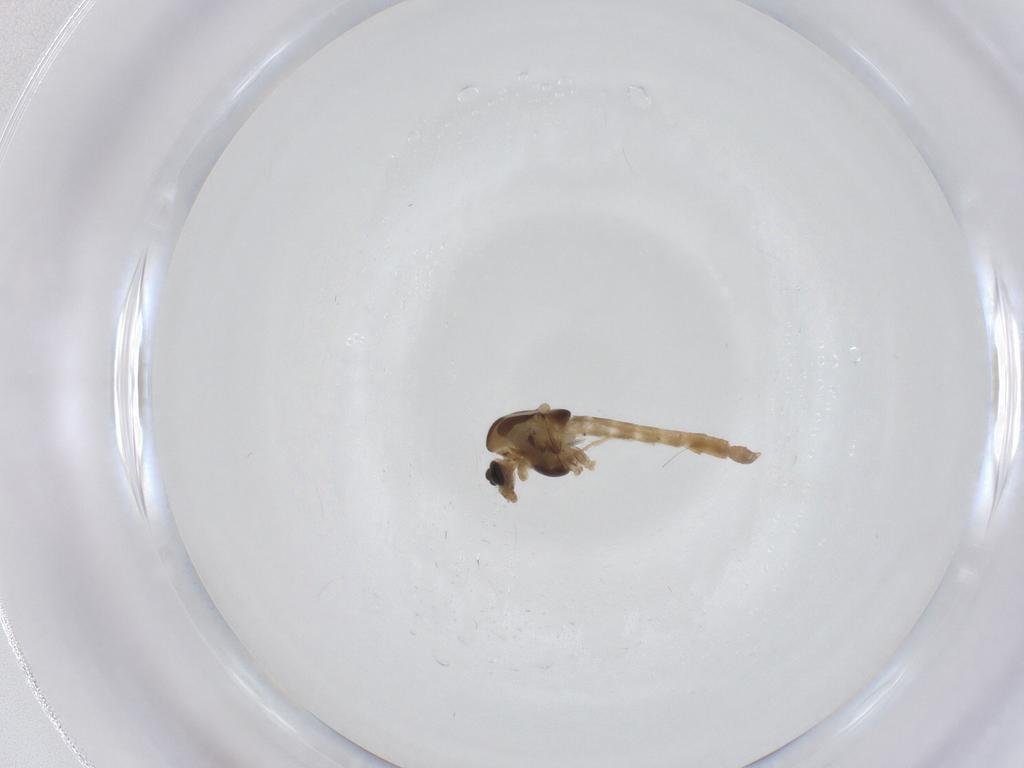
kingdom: Animalia
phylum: Arthropoda
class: Insecta
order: Diptera
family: Chironomidae
